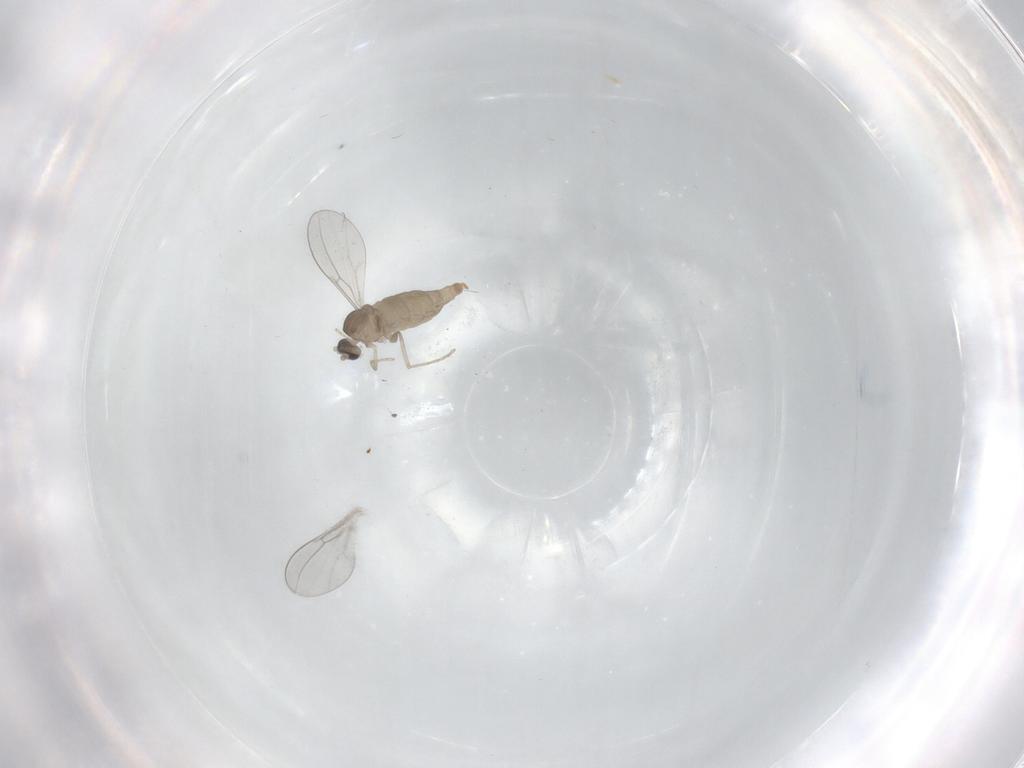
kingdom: Animalia
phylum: Arthropoda
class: Insecta
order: Diptera
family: Cecidomyiidae
